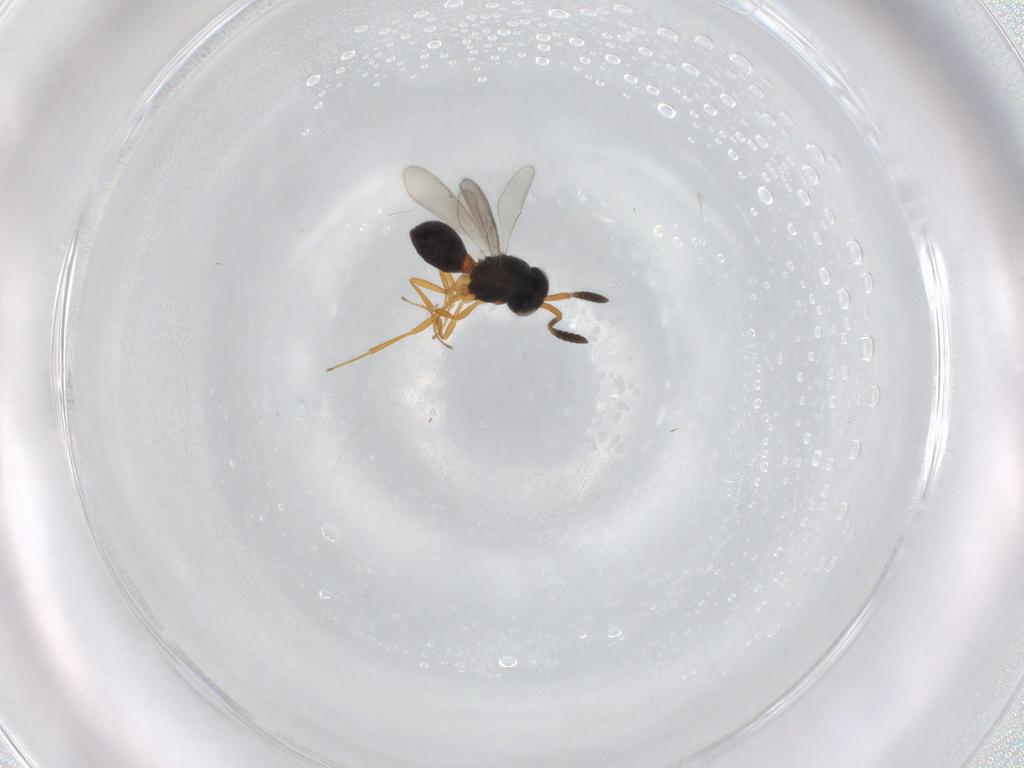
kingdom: Animalia
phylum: Arthropoda
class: Insecta
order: Hymenoptera
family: Scelionidae
